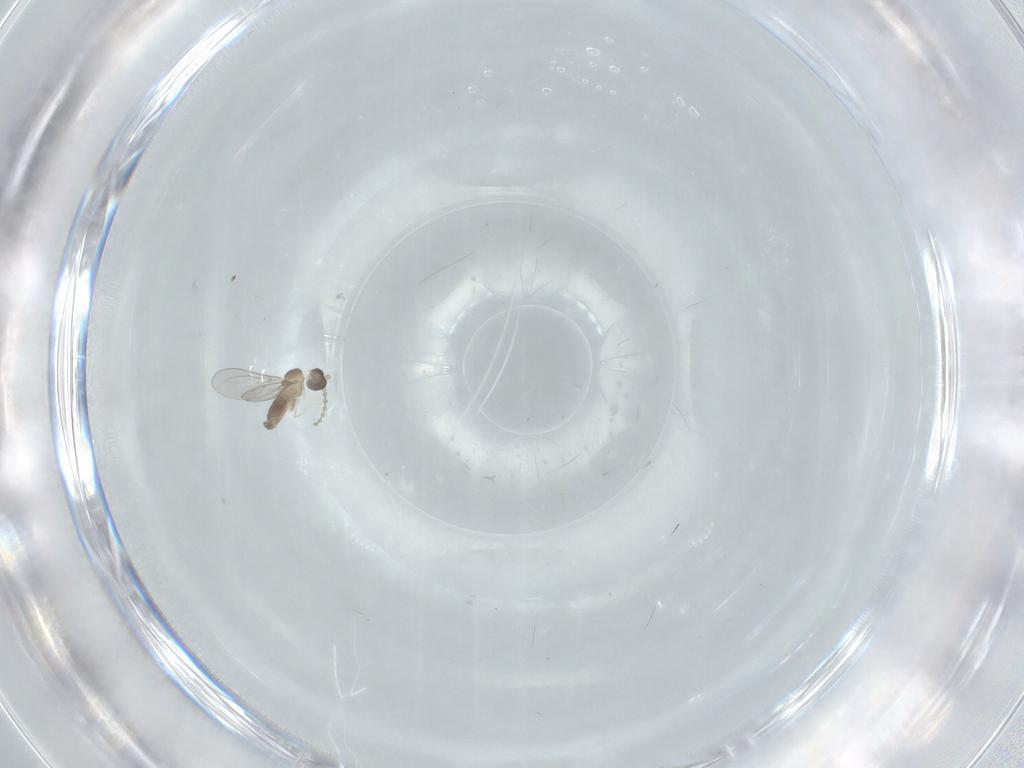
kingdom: Animalia
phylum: Arthropoda
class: Insecta
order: Diptera
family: Cecidomyiidae
